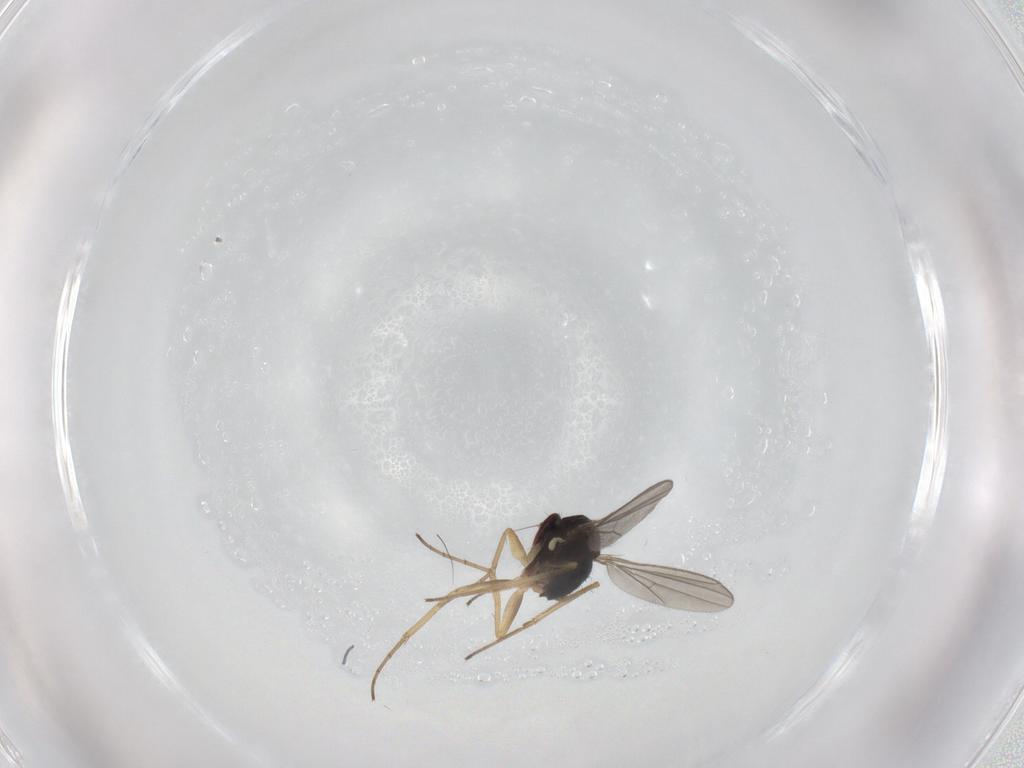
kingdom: Animalia
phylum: Arthropoda
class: Insecta
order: Diptera
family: Dolichopodidae
